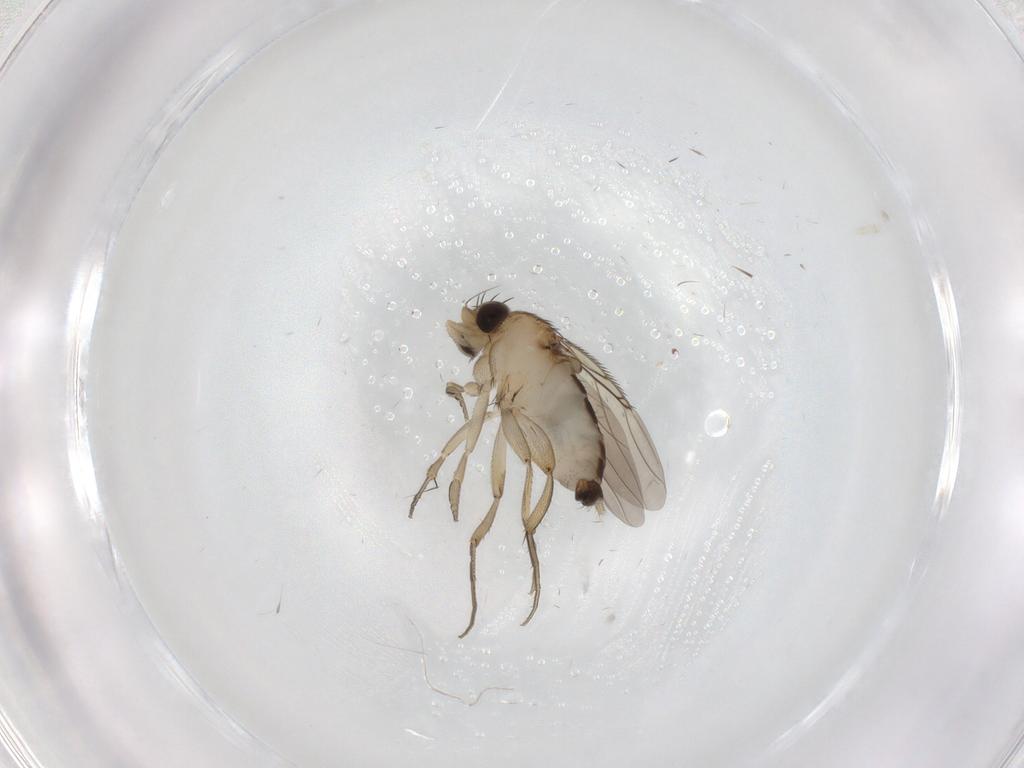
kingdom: Animalia
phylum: Arthropoda
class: Insecta
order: Diptera
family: Phoridae
